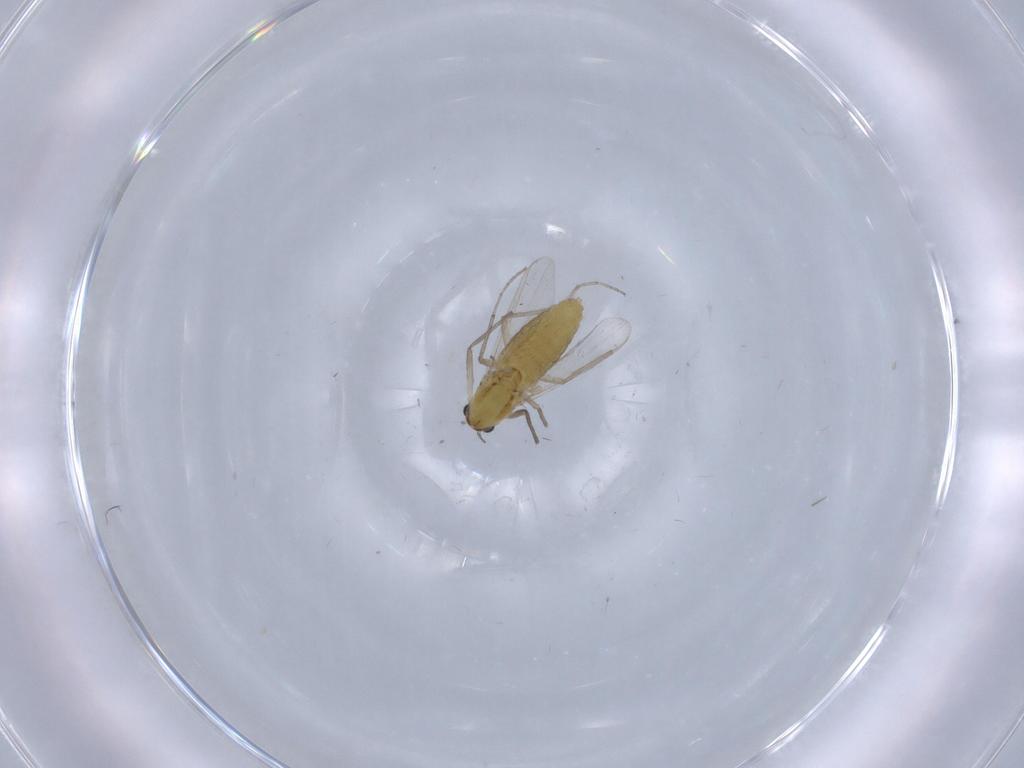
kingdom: Animalia
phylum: Arthropoda
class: Insecta
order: Diptera
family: Chironomidae
